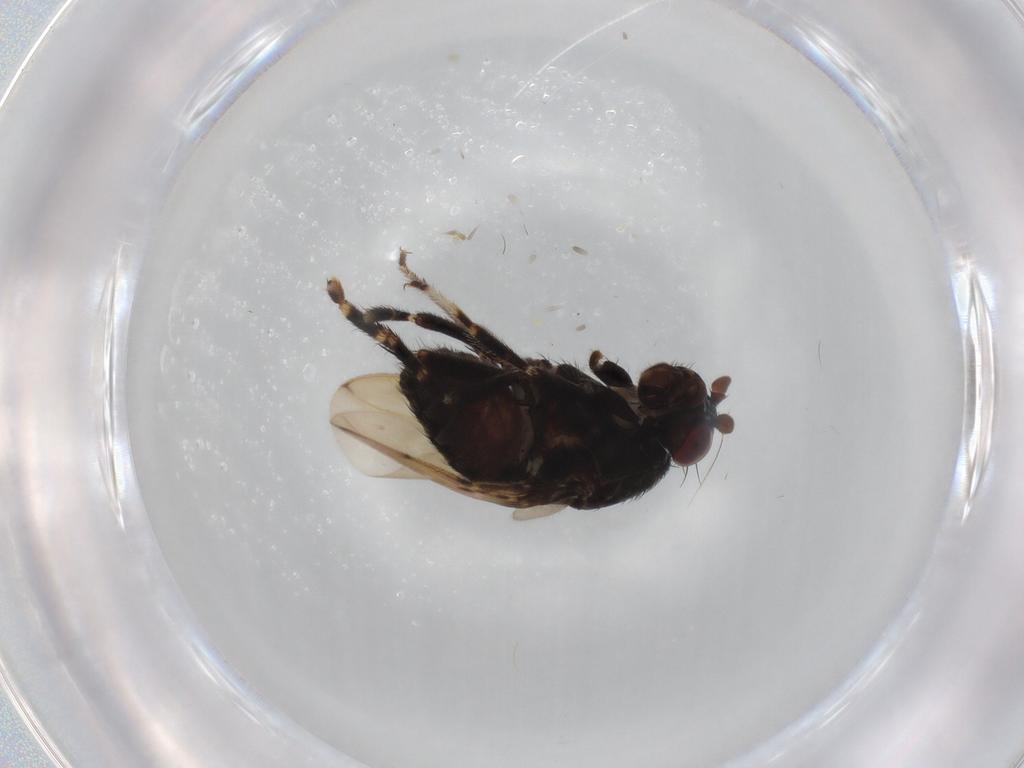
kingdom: Animalia
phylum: Arthropoda
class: Insecta
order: Diptera
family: Sphaeroceridae
